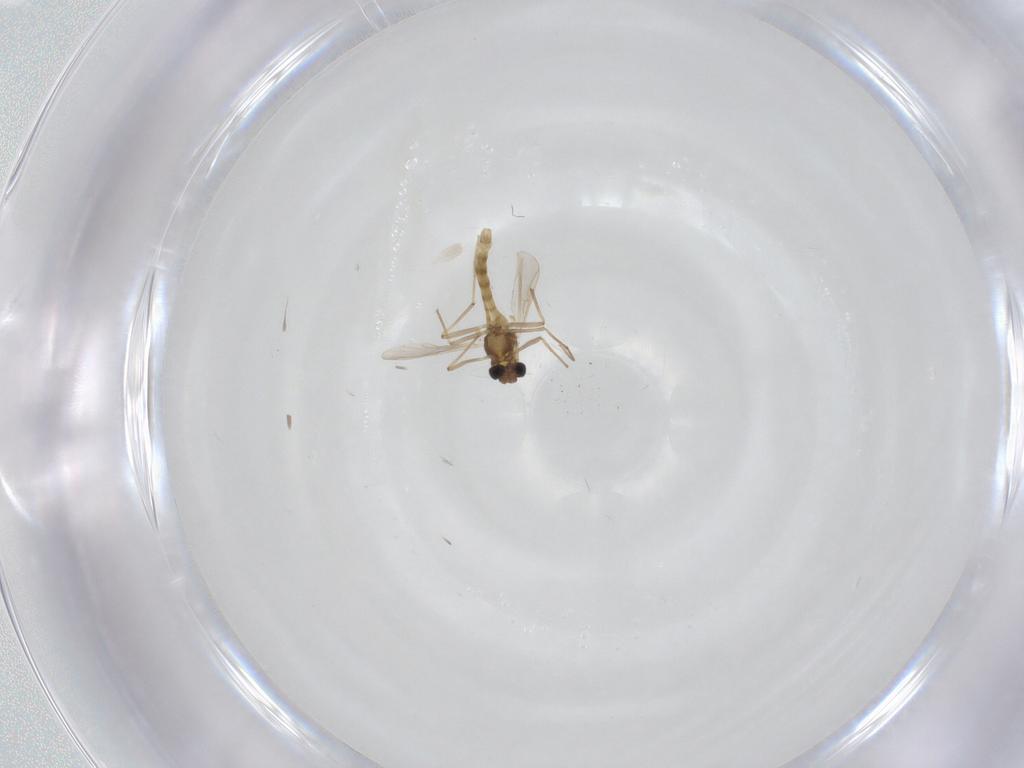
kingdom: Animalia
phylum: Arthropoda
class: Insecta
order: Diptera
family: Chironomidae
